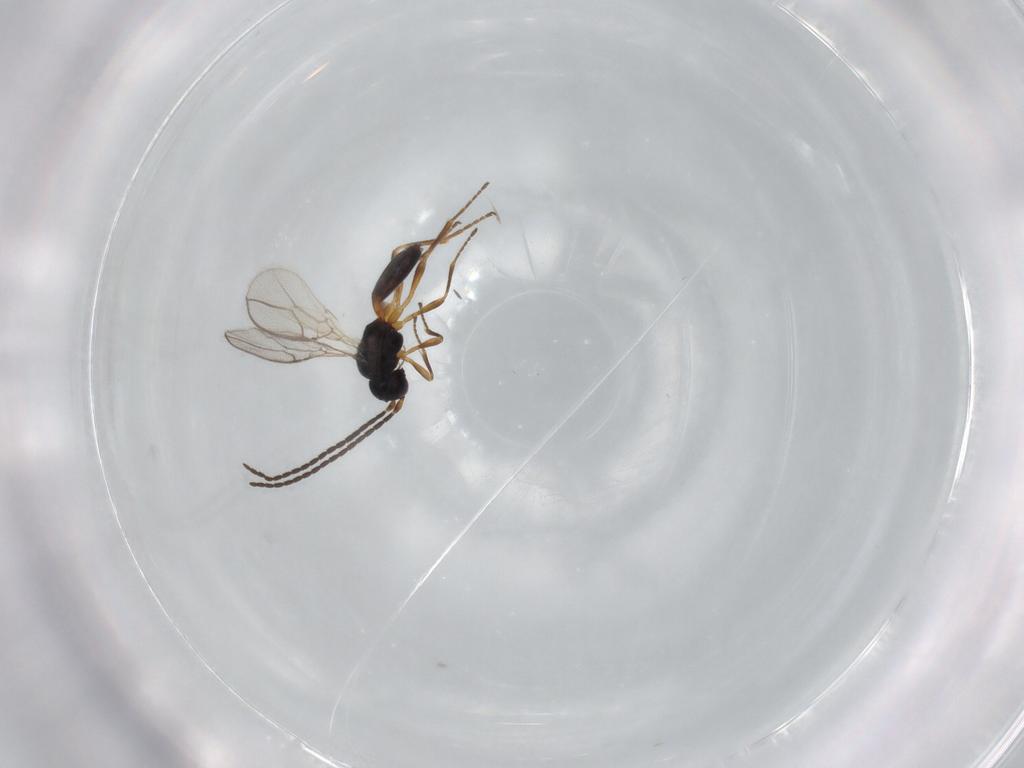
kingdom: Animalia
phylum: Arthropoda
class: Insecta
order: Hymenoptera
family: Braconidae
